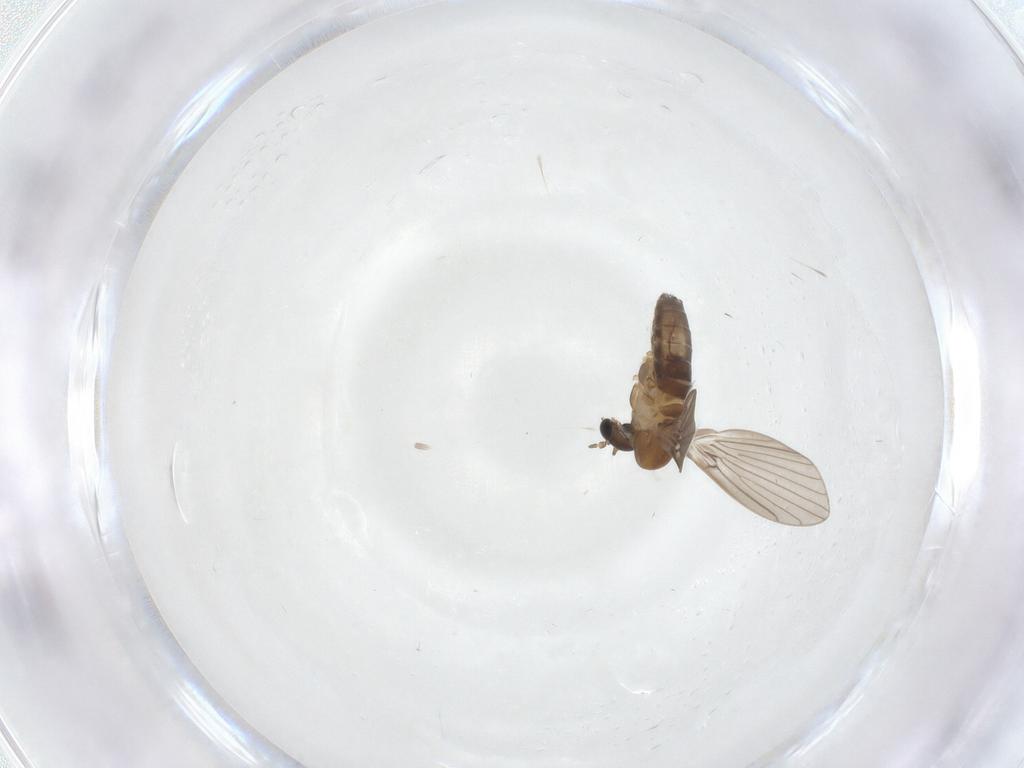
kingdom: Animalia
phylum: Arthropoda
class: Insecta
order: Diptera
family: Psychodidae
